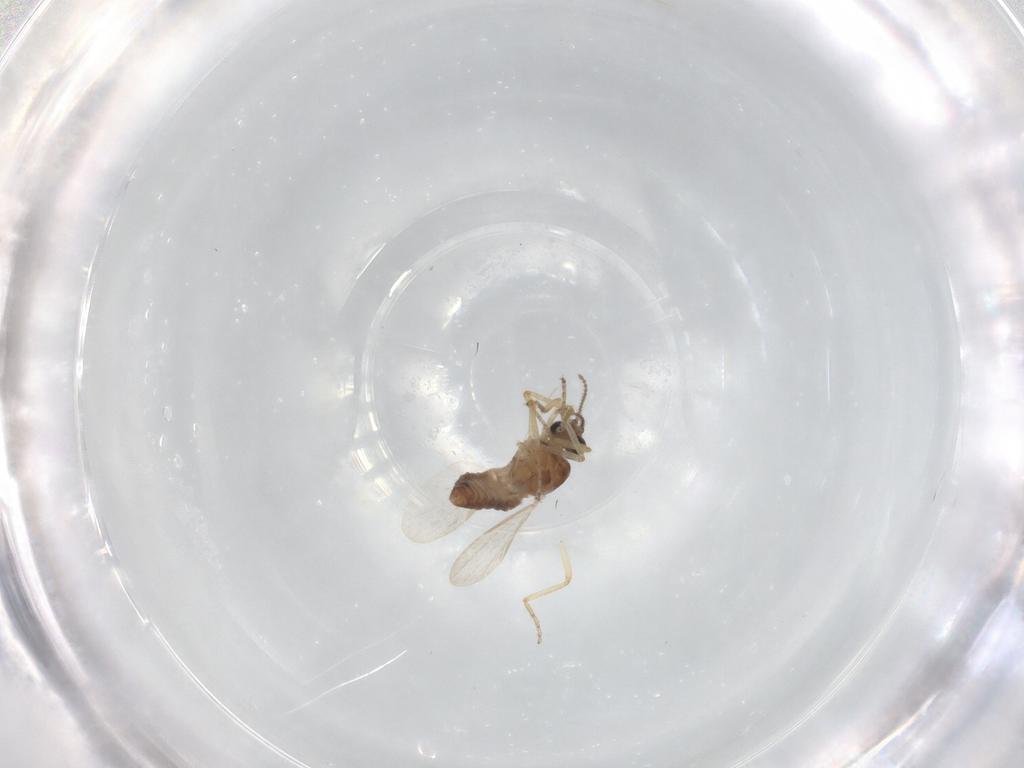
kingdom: Animalia
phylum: Arthropoda
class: Insecta
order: Diptera
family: Ceratopogonidae
